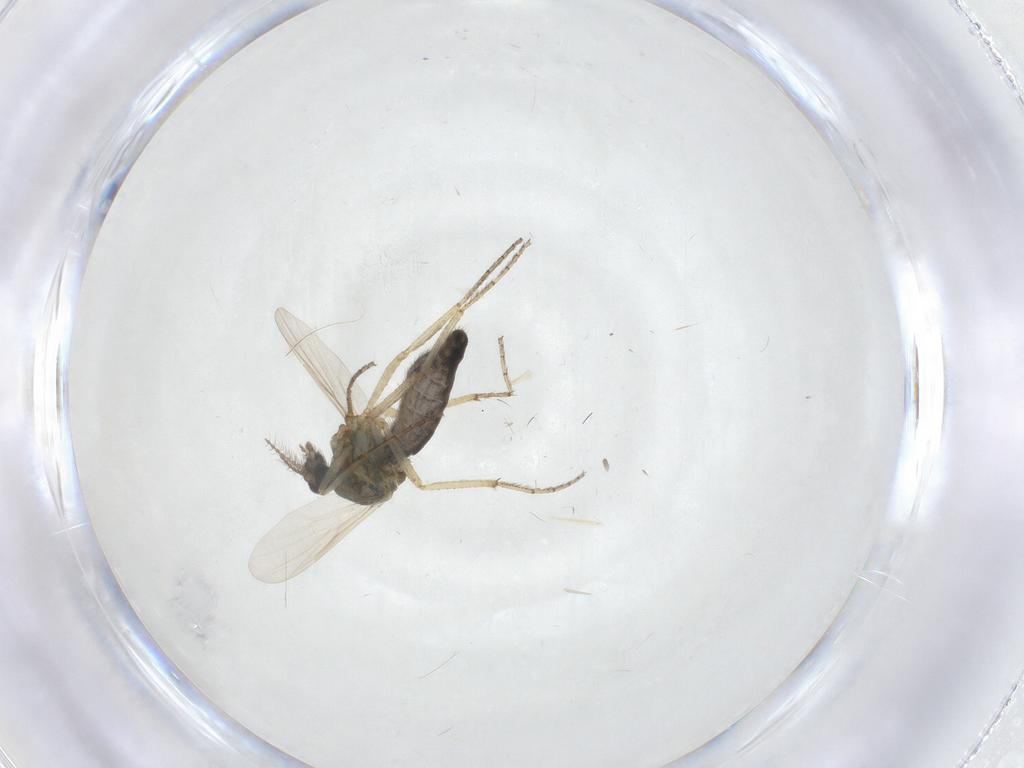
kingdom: Animalia
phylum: Arthropoda
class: Insecta
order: Diptera
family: Ceratopogonidae
